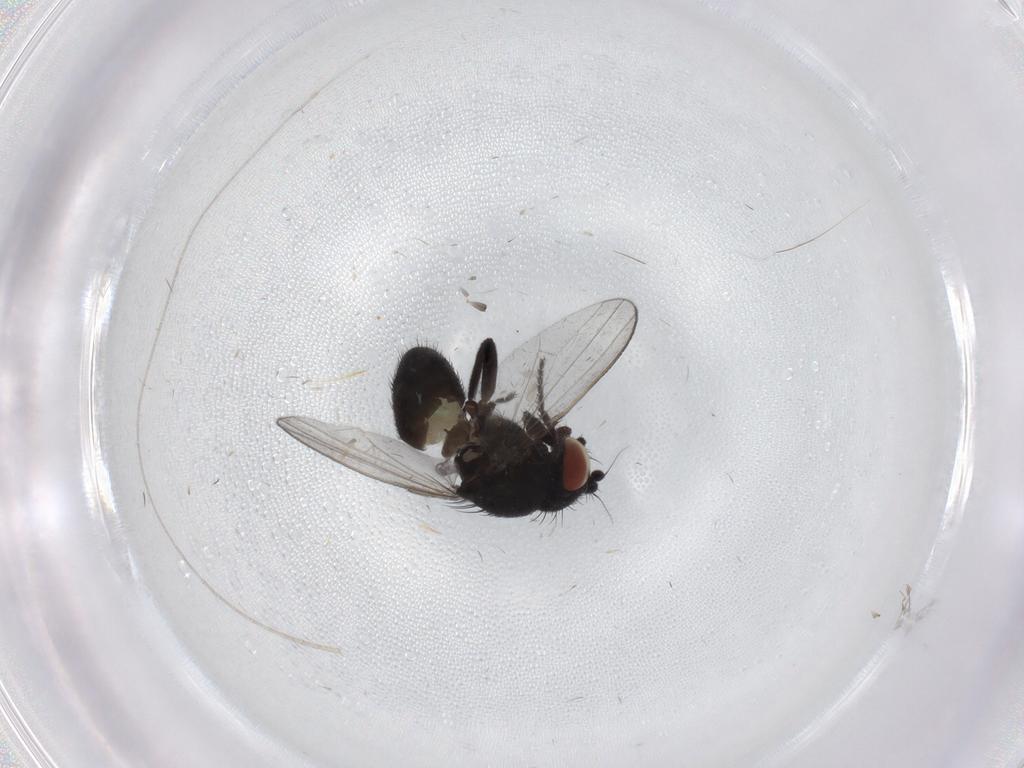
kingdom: Animalia
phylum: Arthropoda
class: Insecta
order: Diptera
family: Milichiidae
